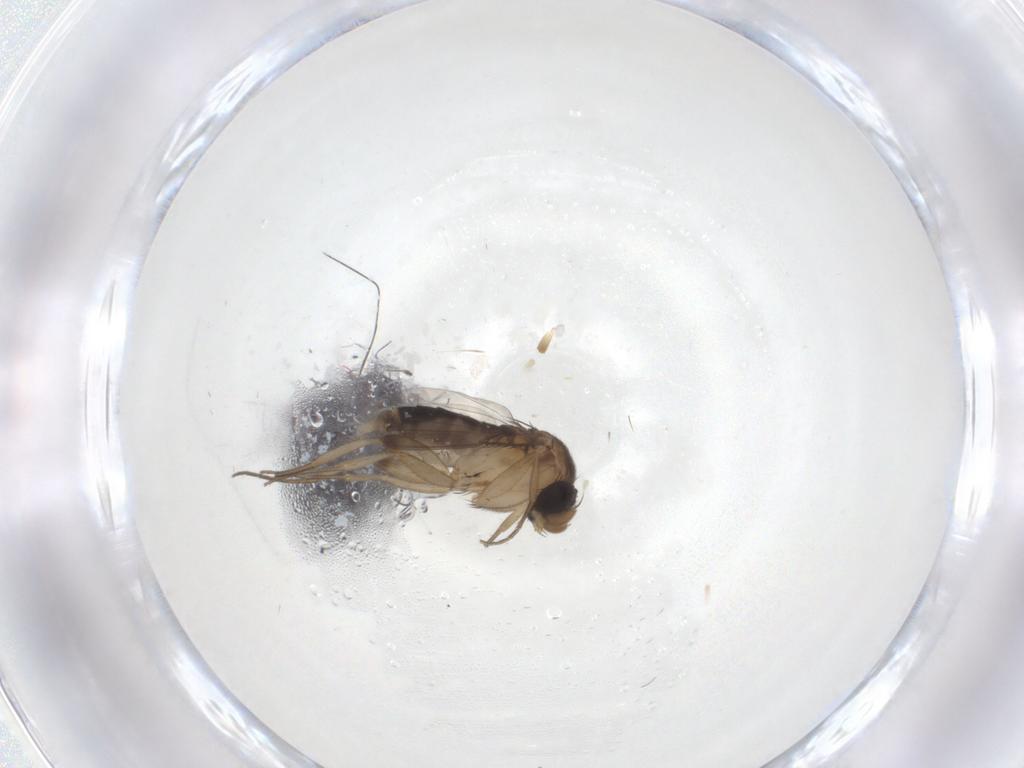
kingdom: Animalia
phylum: Arthropoda
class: Insecta
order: Diptera
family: Phoridae
